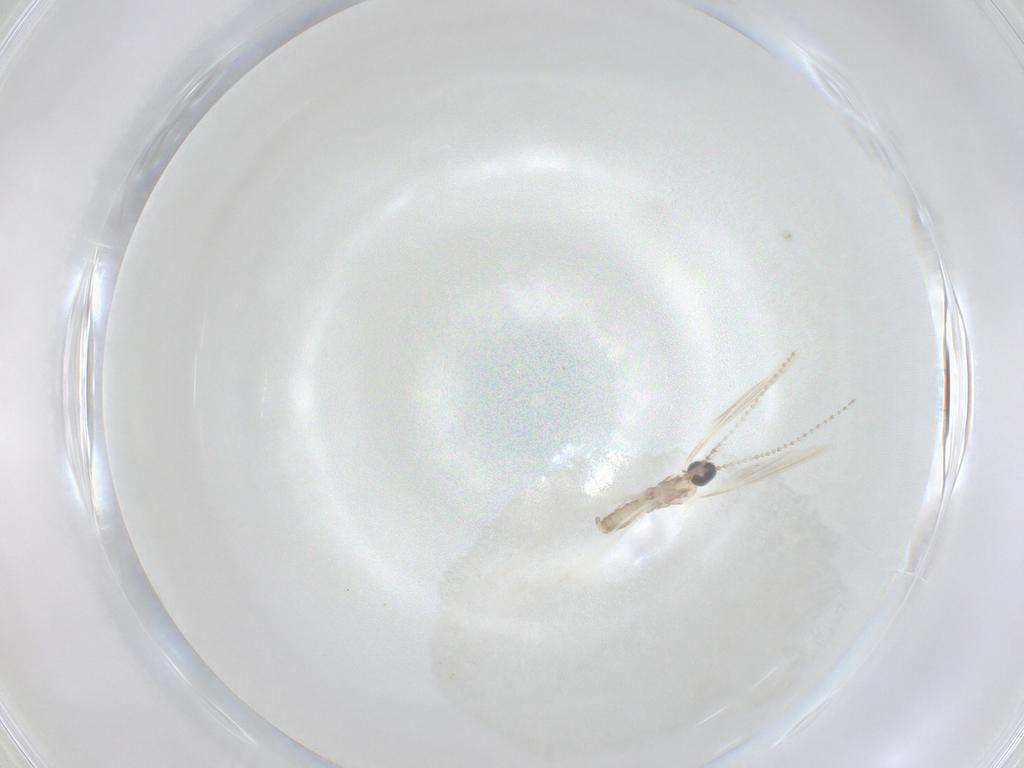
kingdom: Animalia
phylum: Arthropoda
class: Insecta
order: Diptera
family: Cecidomyiidae
